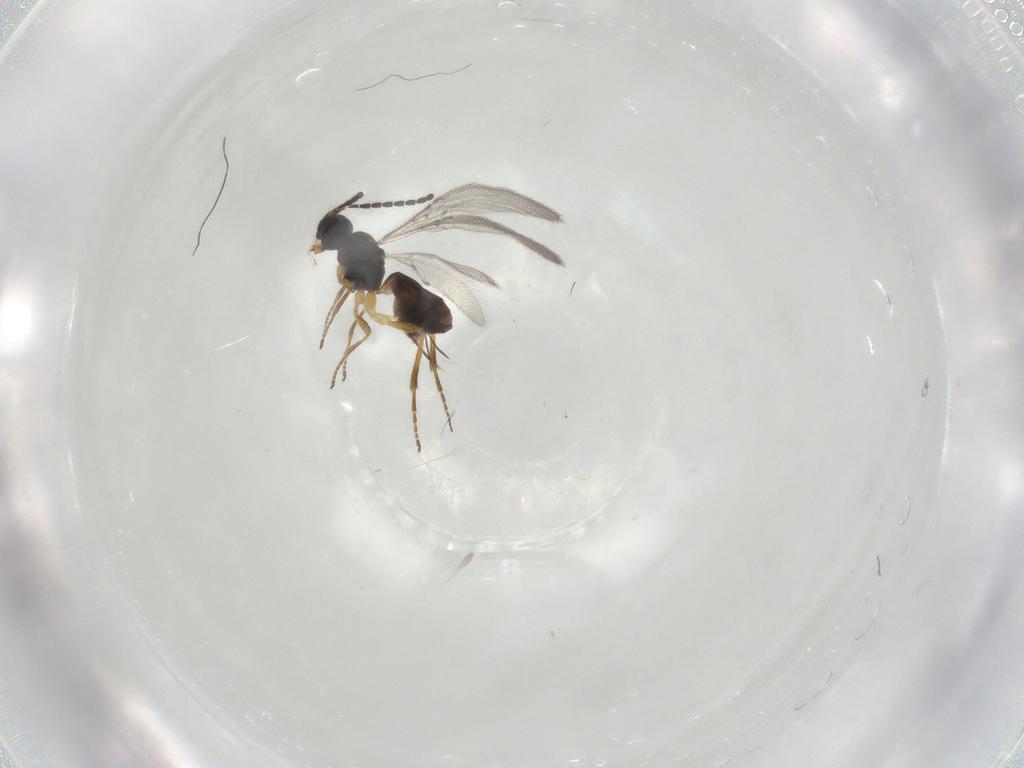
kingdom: Animalia
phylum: Arthropoda
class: Insecta
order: Hymenoptera
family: Braconidae
